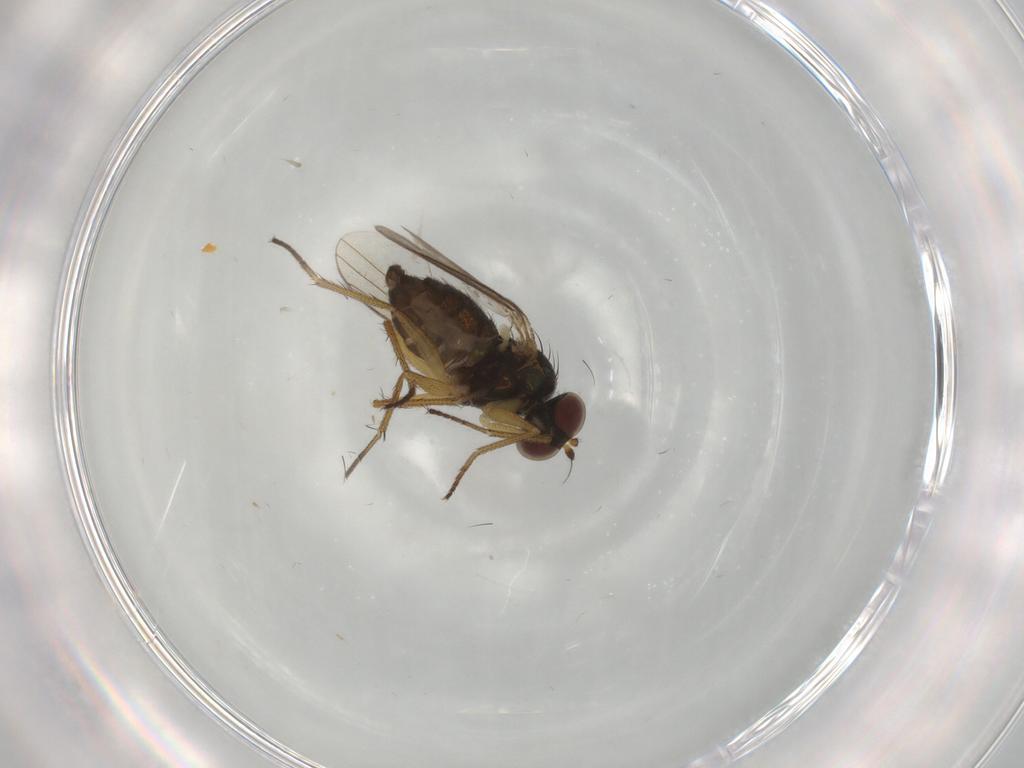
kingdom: Animalia
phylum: Arthropoda
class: Insecta
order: Diptera
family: Dolichopodidae
